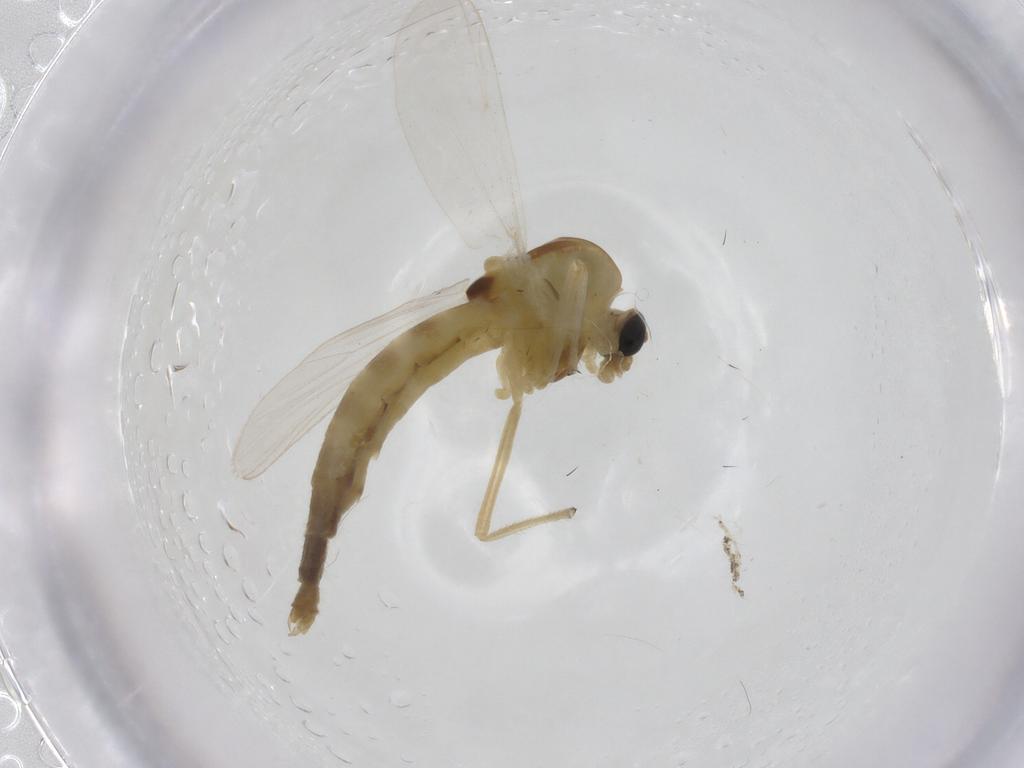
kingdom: Animalia
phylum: Arthropoda
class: Insecta
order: Diptera
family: Chironomidae
